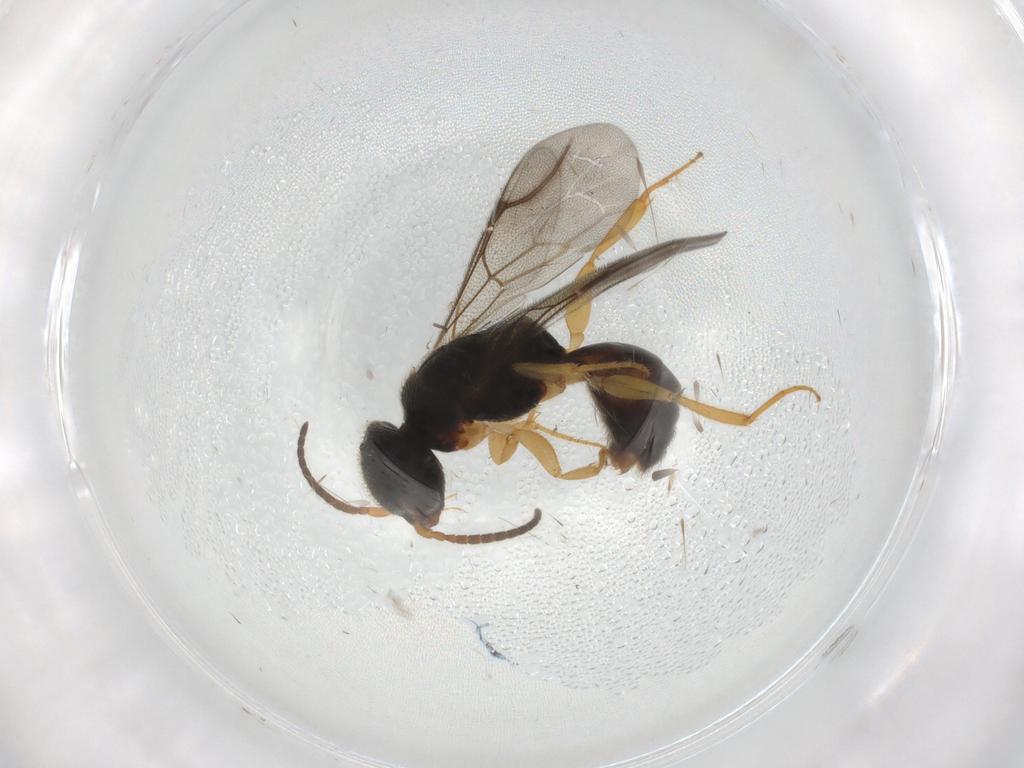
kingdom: Animalia
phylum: Arthropoda
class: Insecta
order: Hymenoptera
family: Bethylidae
